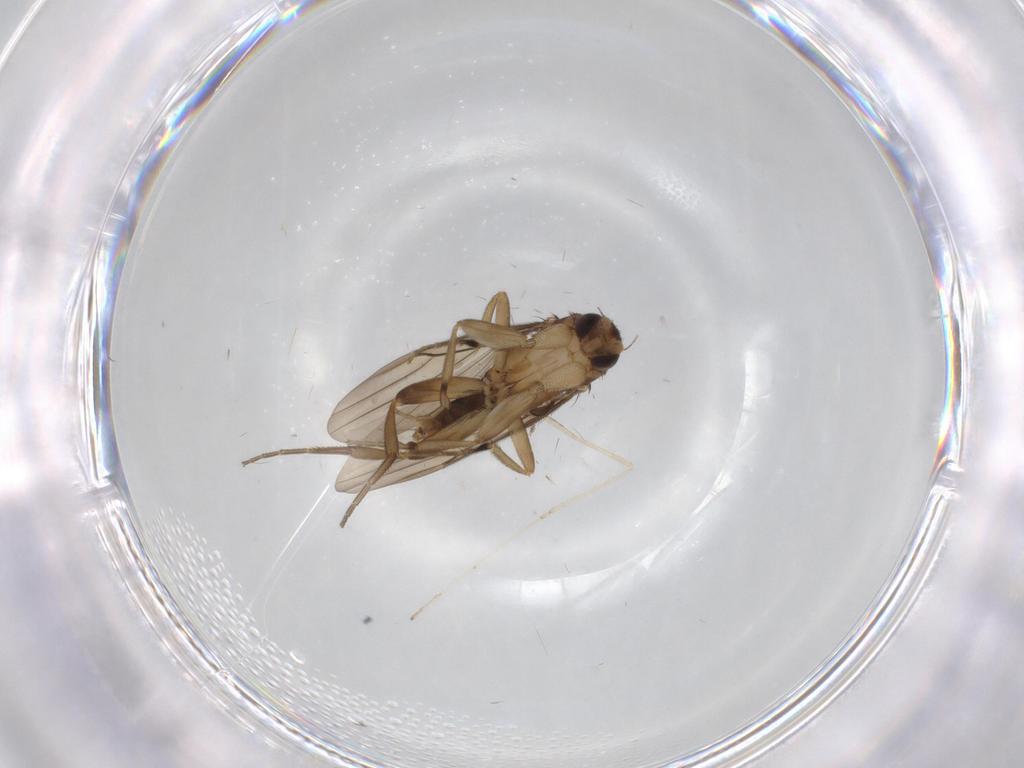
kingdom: Animalia
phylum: Arthropoda
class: Insecta
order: Diptera
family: Phoridae
